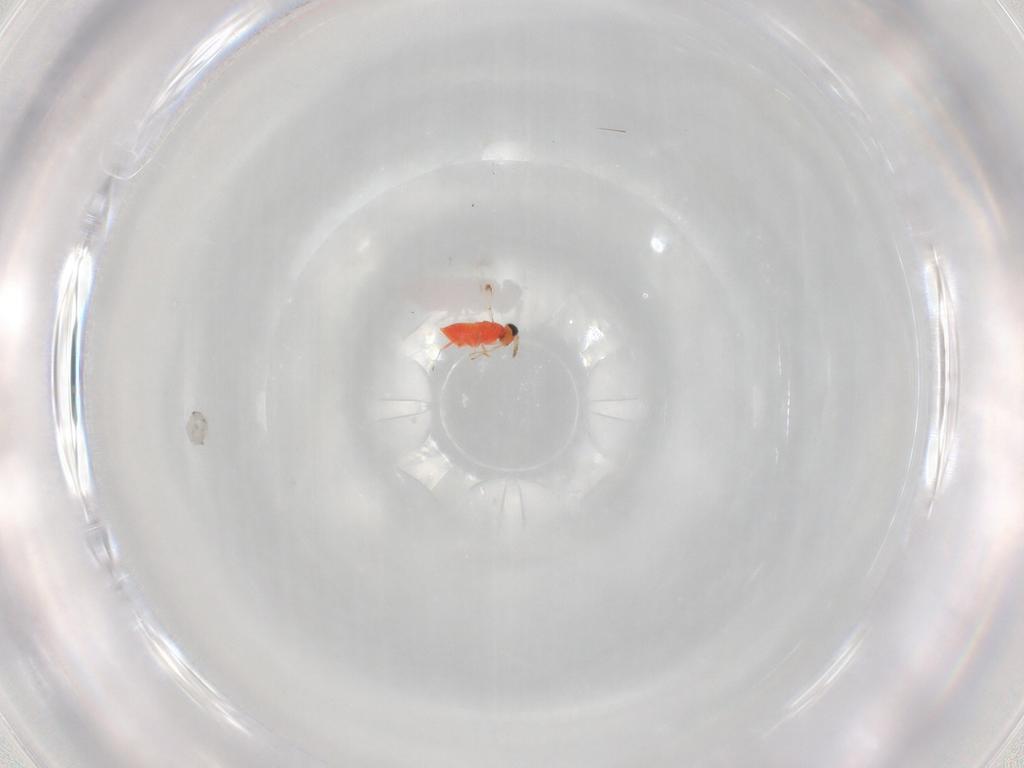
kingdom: Animalia
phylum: Arthropoda
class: Insecta
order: Hymenoptera
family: Trichogrammatidae
